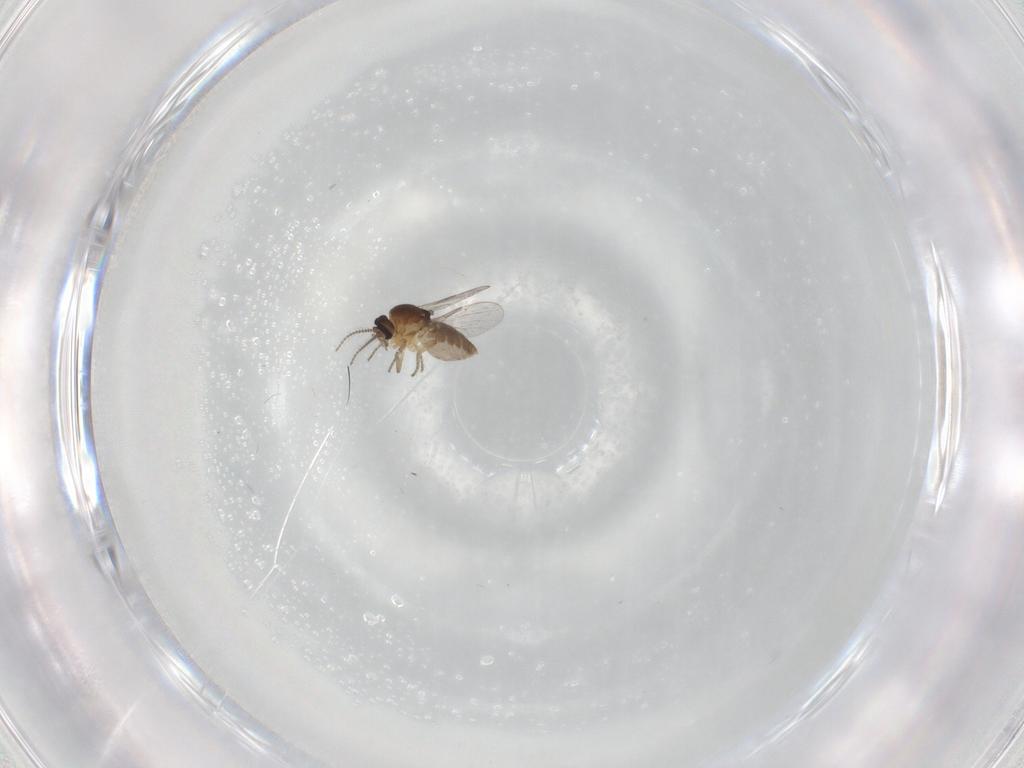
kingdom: Animalia
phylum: Arthropoda
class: Insecta
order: Diptera
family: Ceratopogonidae
